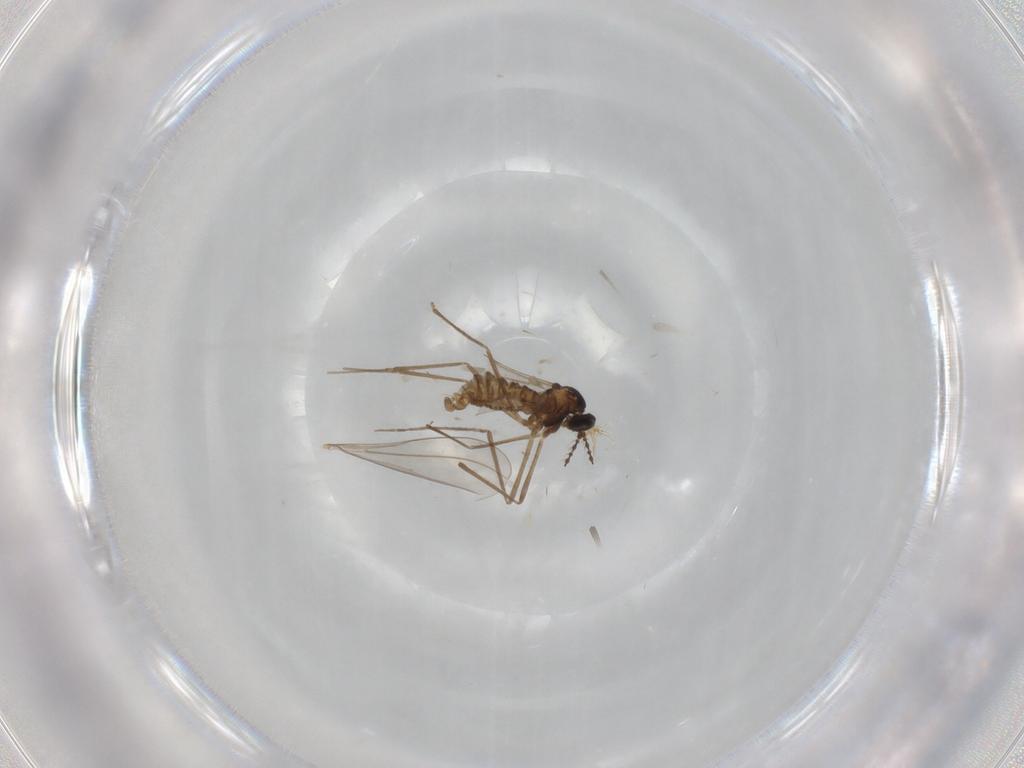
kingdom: Animalia
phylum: Arthropoda
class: Insecta
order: Diptera
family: Cecidomyiidae
